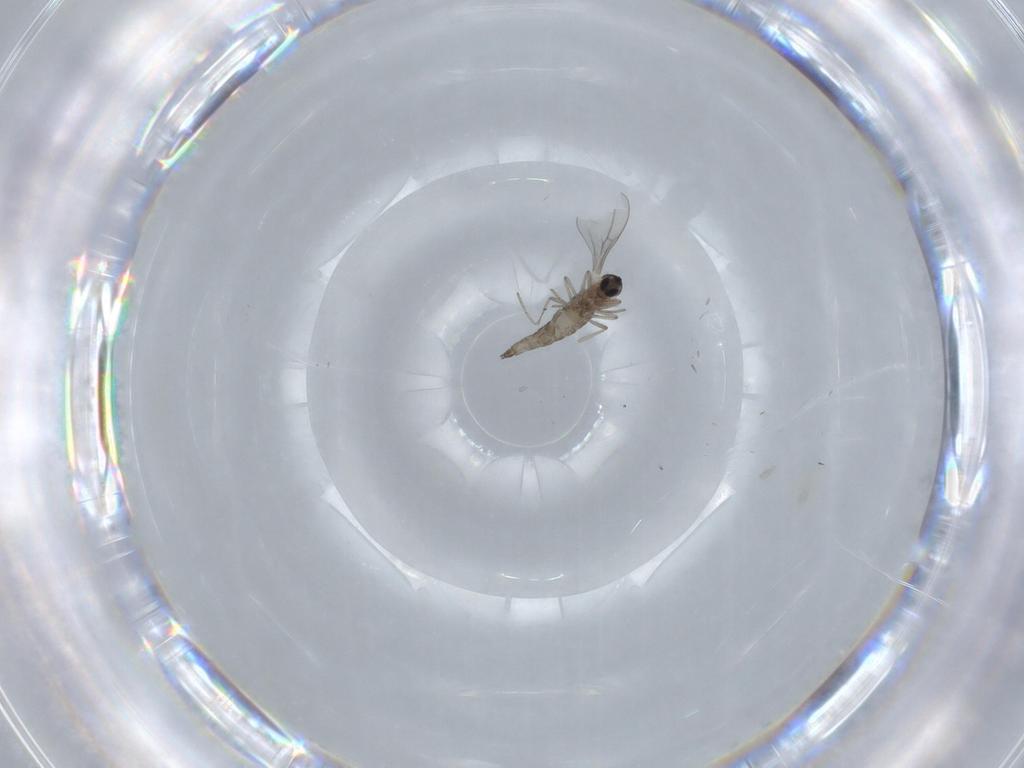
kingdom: Animalia
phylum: Arthropoda
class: Insecta
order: Diptera
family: Cecidomyiidae
